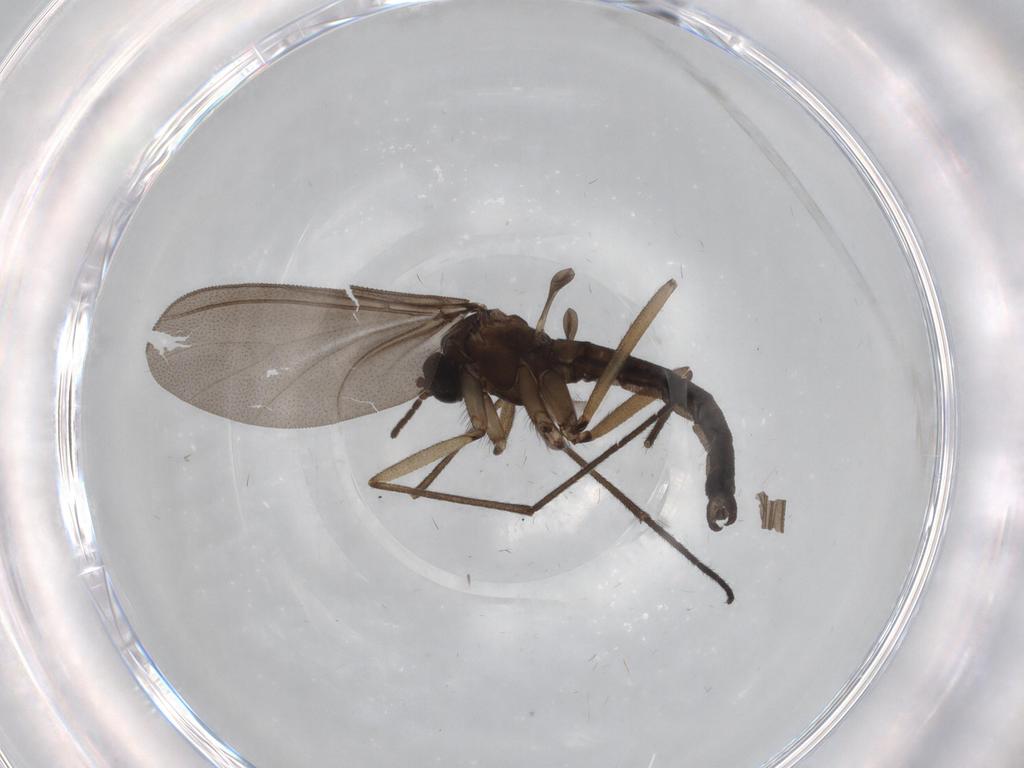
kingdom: Animalia
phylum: Arthropoda
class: Insecta
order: Diptera
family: Sciaridae
